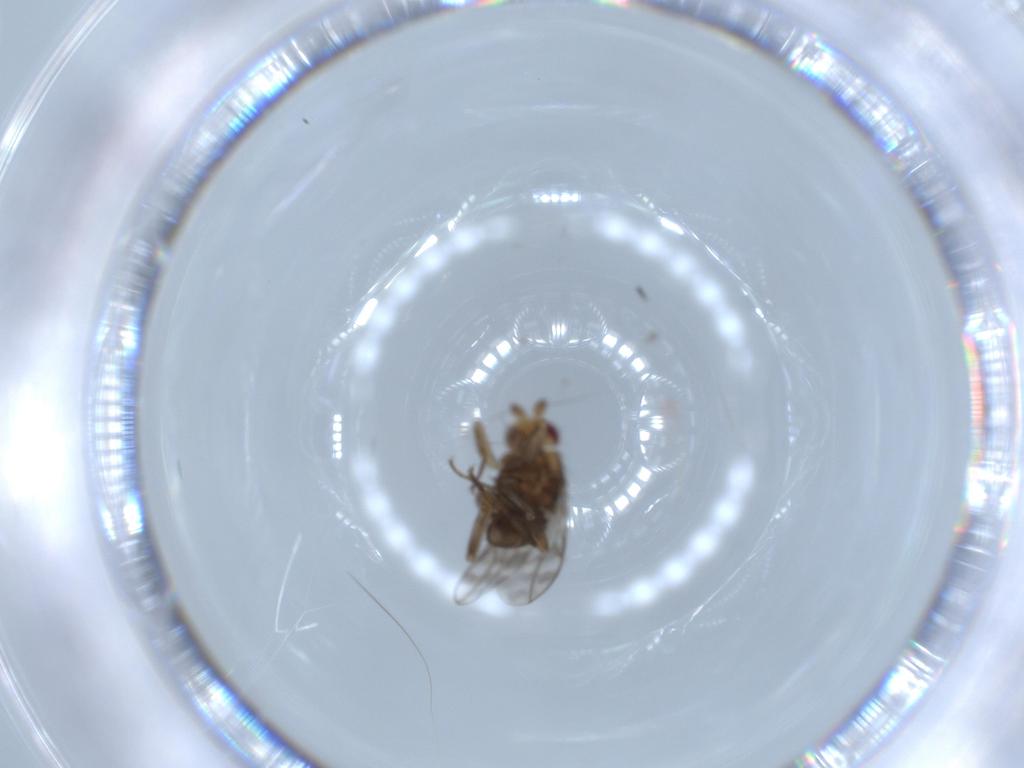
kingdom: Animalia
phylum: Arthropoda
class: Insecta
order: Diptera
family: Sphaeroceridae
